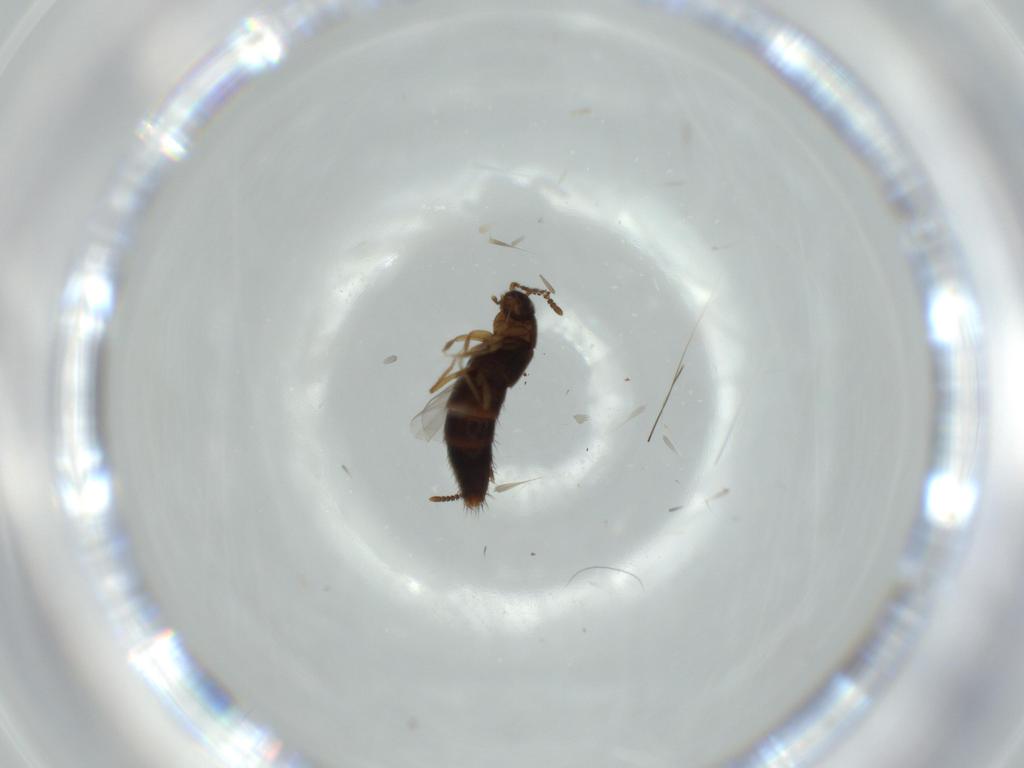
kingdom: Animalia
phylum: Arthropoda
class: Insecta
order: Coleoptera
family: Staphylinidae
